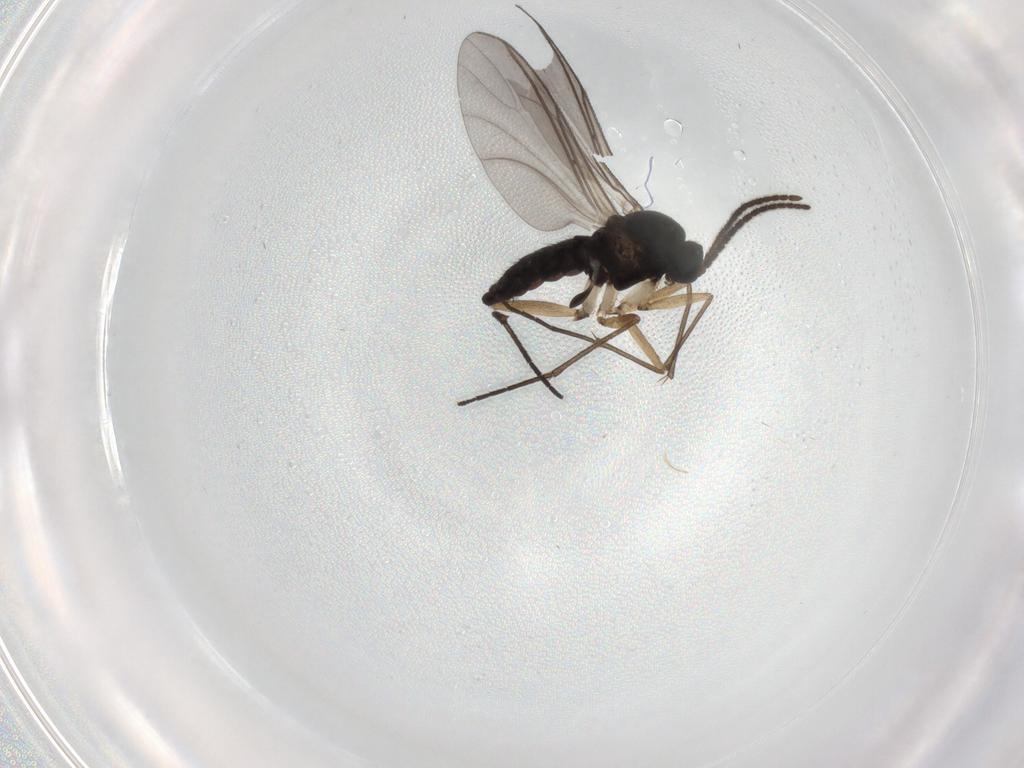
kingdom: Animalia
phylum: Arthropoda
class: Insecta
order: Diptera
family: Sciaridae
